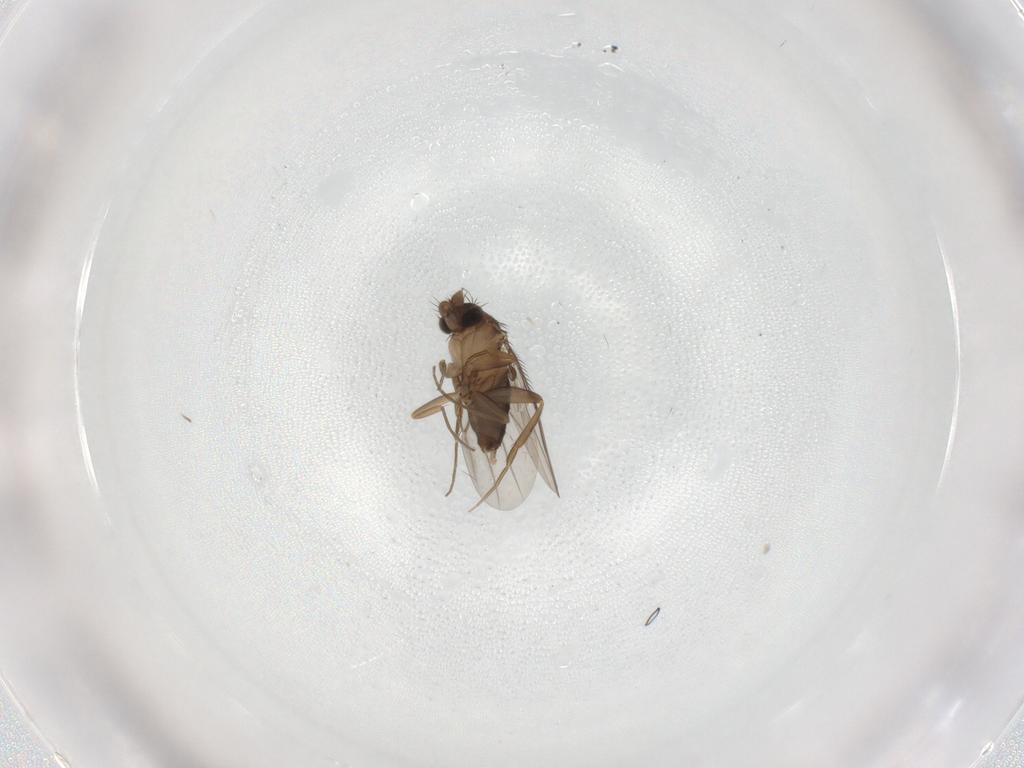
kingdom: Animalia
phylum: Arthropoda
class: Insecta
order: Diptera
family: Phoridae
